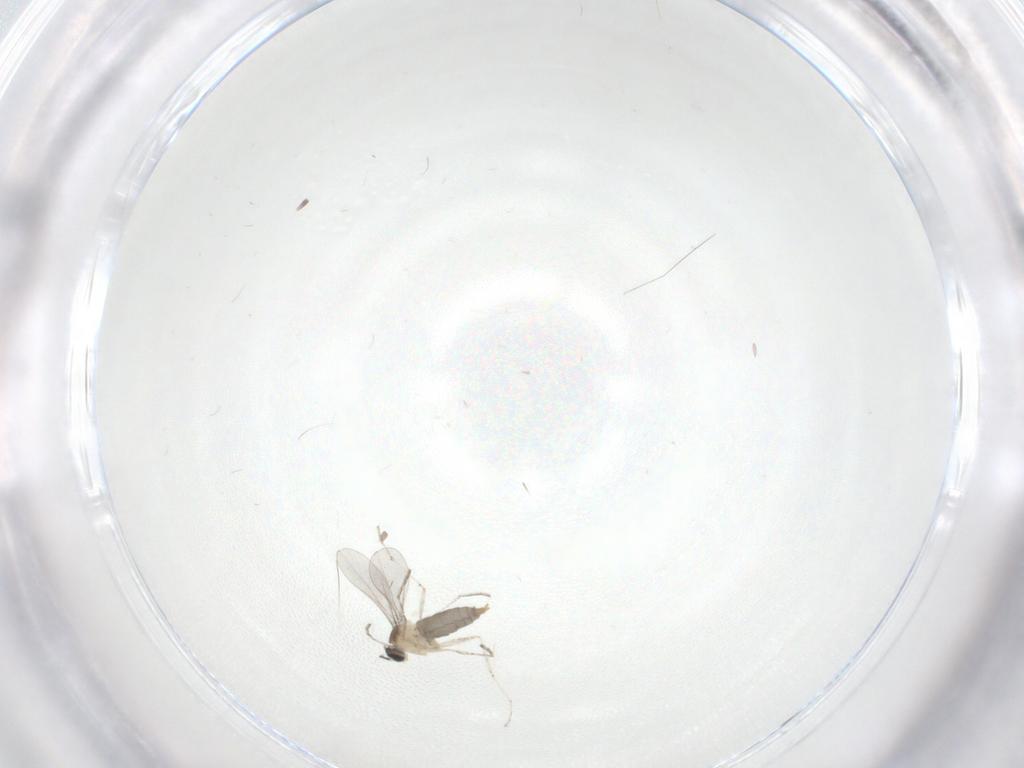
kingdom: Animalia
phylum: Arthropoda
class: Insecta
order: Diptera
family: Cecidomyiidae
